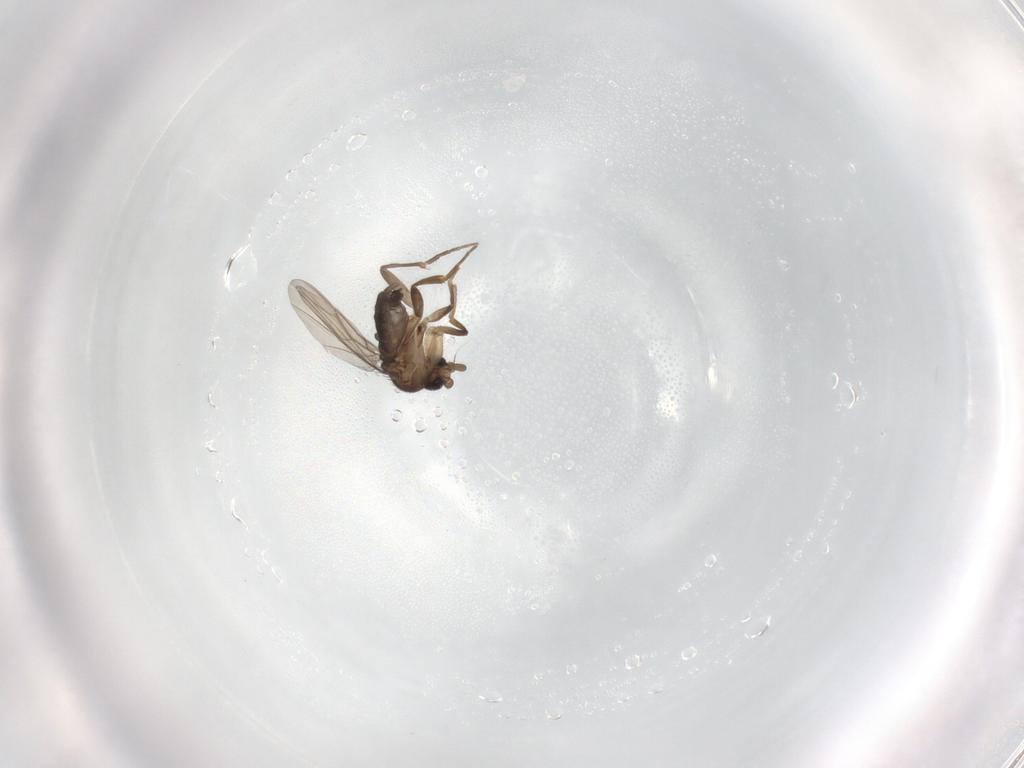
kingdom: Animalia
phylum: Arthropoda
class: Insecta
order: Diptera
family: Phoridae
